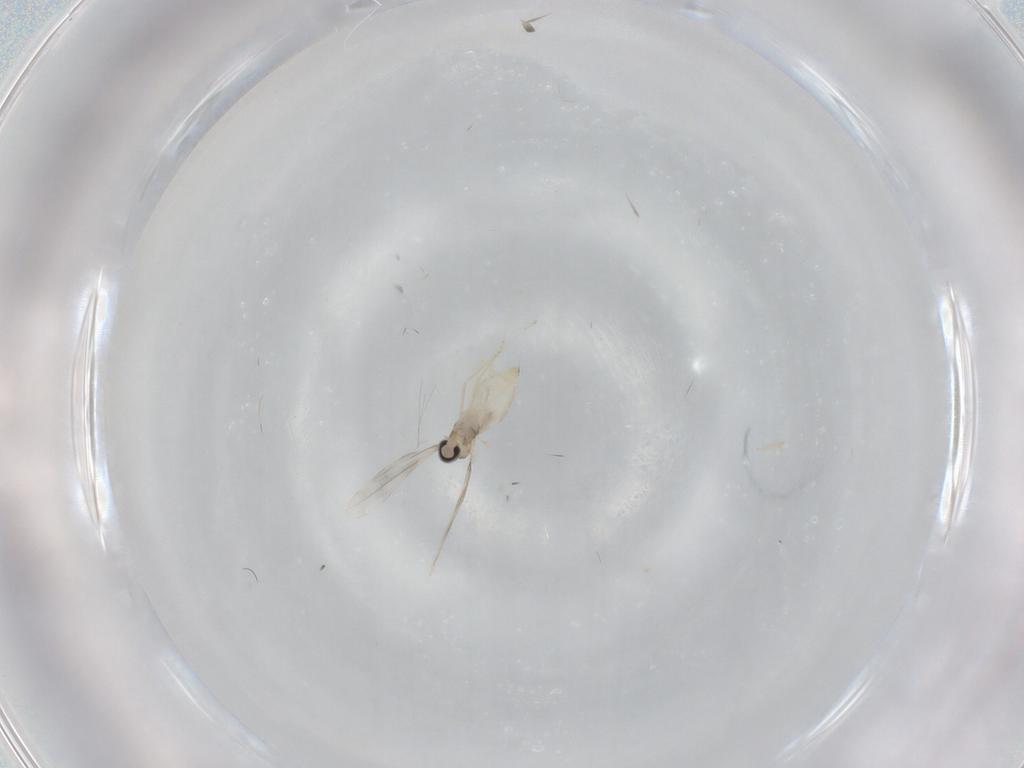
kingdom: Animalia
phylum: Arthropoda
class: Insecta
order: Diptera
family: Cecidomyiidae
